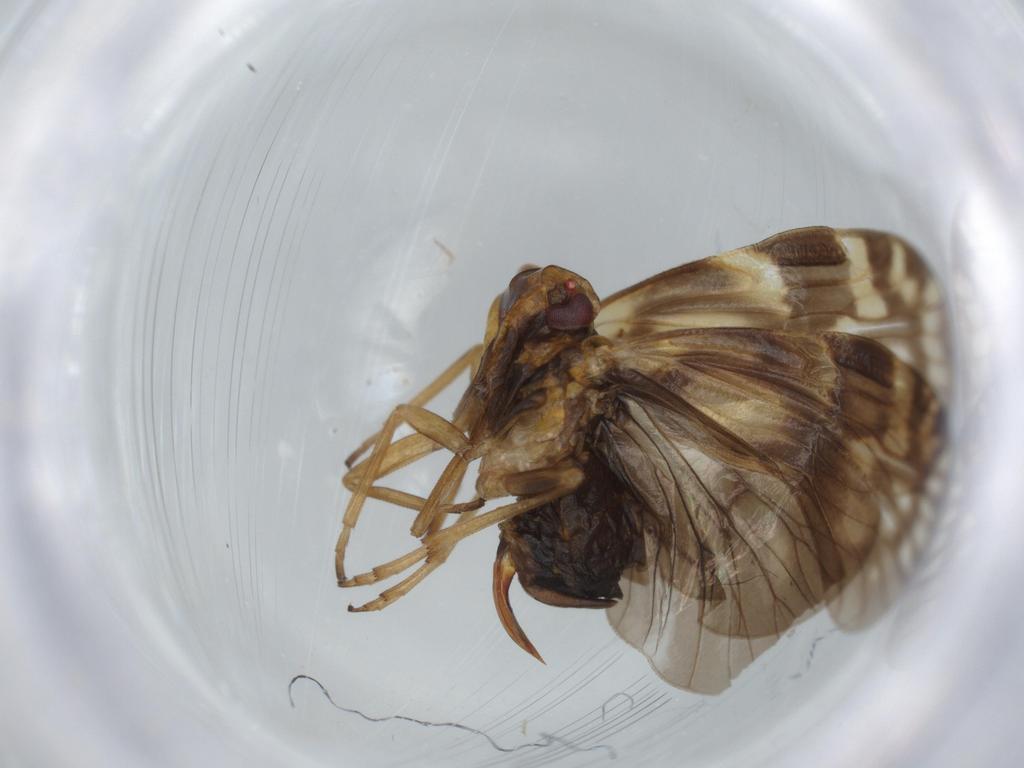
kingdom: Animalia
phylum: Arthropoda
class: Insecta
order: Hemiptera
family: Cixiidae
